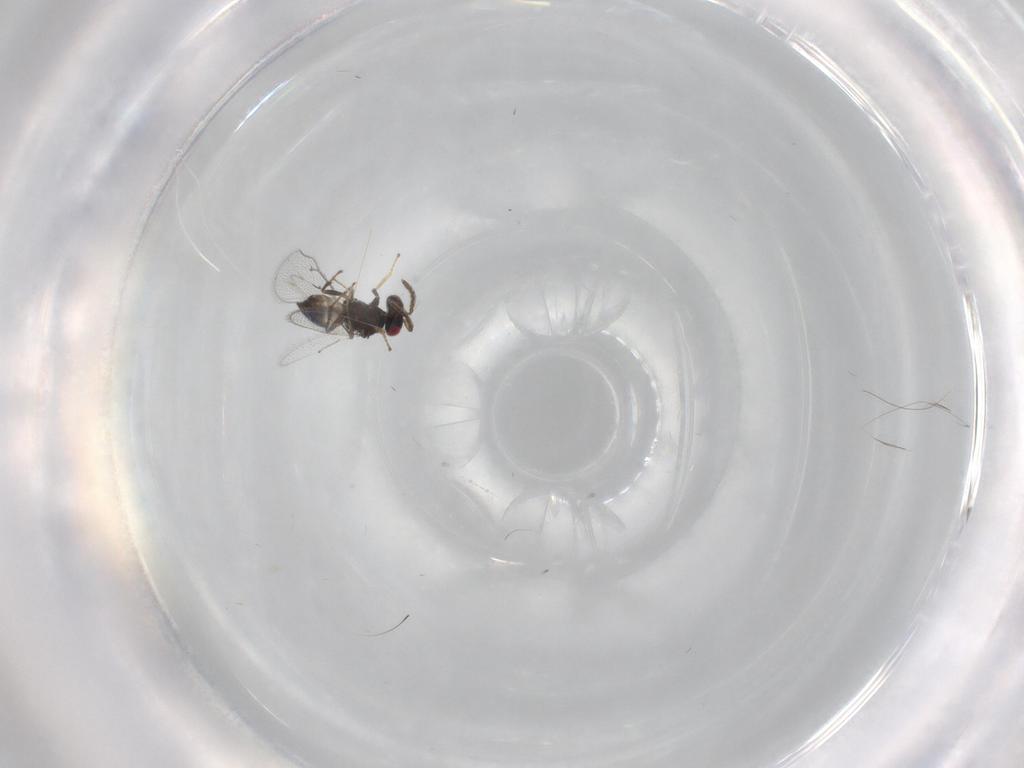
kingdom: Animalia
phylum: Arthropoda
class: Insecta
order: Hymenoptera
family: Eulophidae
